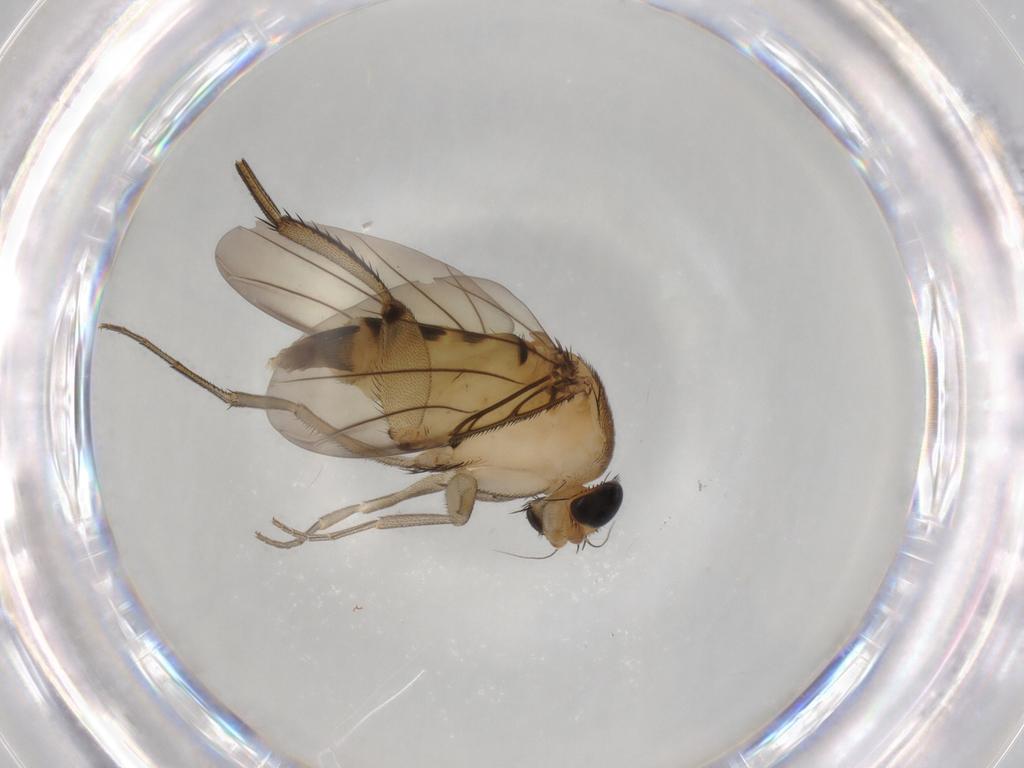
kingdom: Animalia
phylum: Arthropoda
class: Insecta
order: Diptera
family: Phoridae
